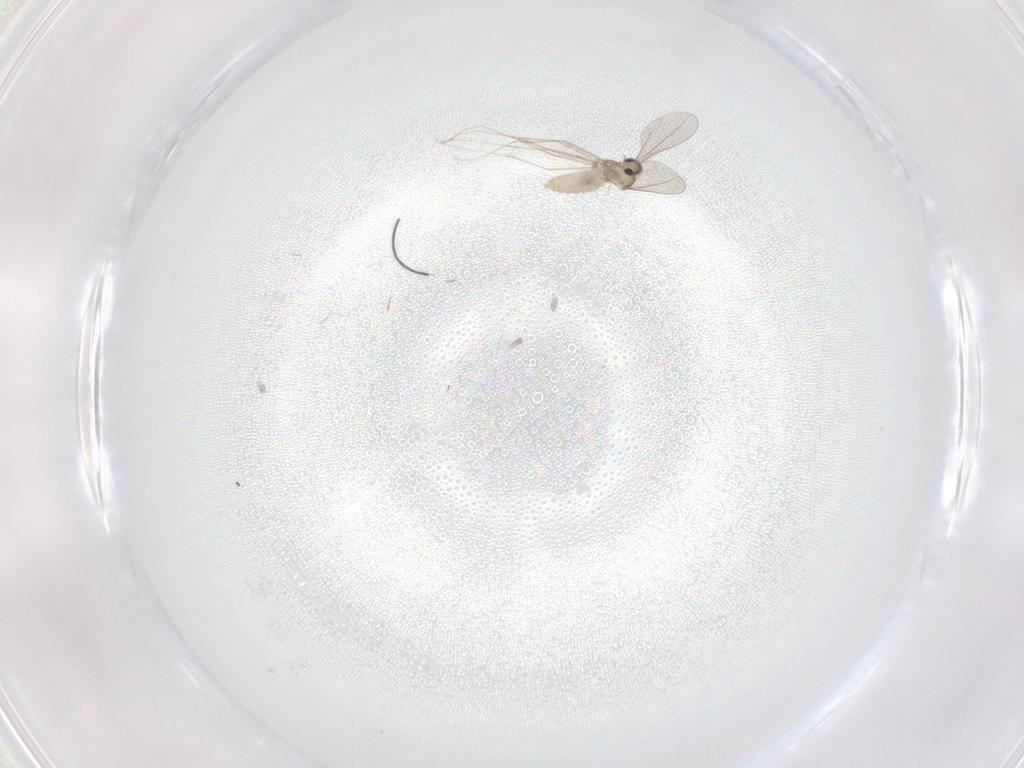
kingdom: Animalia
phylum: Arthropoda
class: Insecta
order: Diptera
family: Cecidomyiidae
